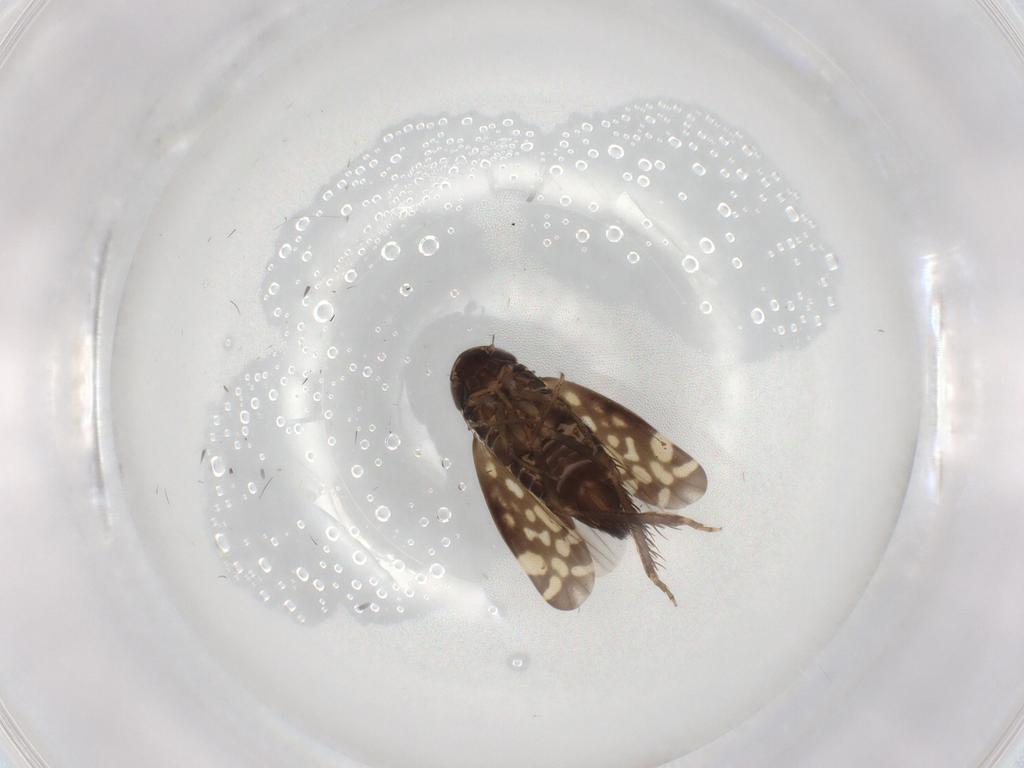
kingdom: Animalia
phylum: Arthropoda
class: Insecta
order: Hemiptera
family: Cicadellidae
